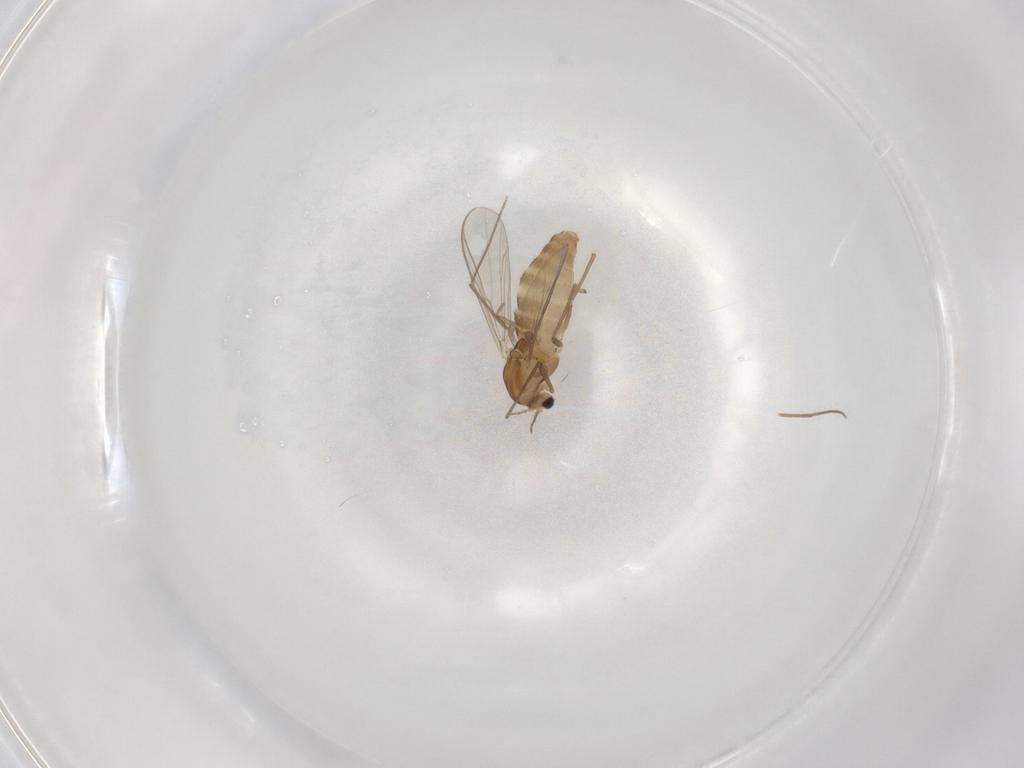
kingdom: Animalia
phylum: Arthropoda
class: Insecta
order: Diptera
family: Chironomidae
